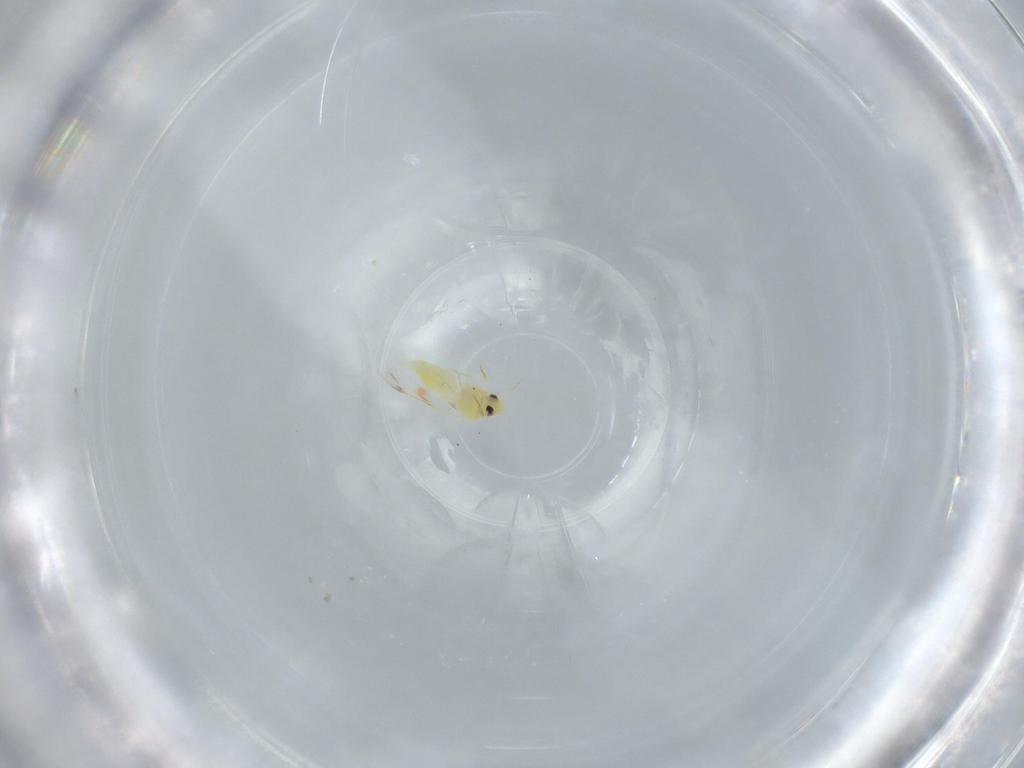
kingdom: Animalia
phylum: Arthropoda
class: Insecta
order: Hemiptera
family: Aleyrodidae
